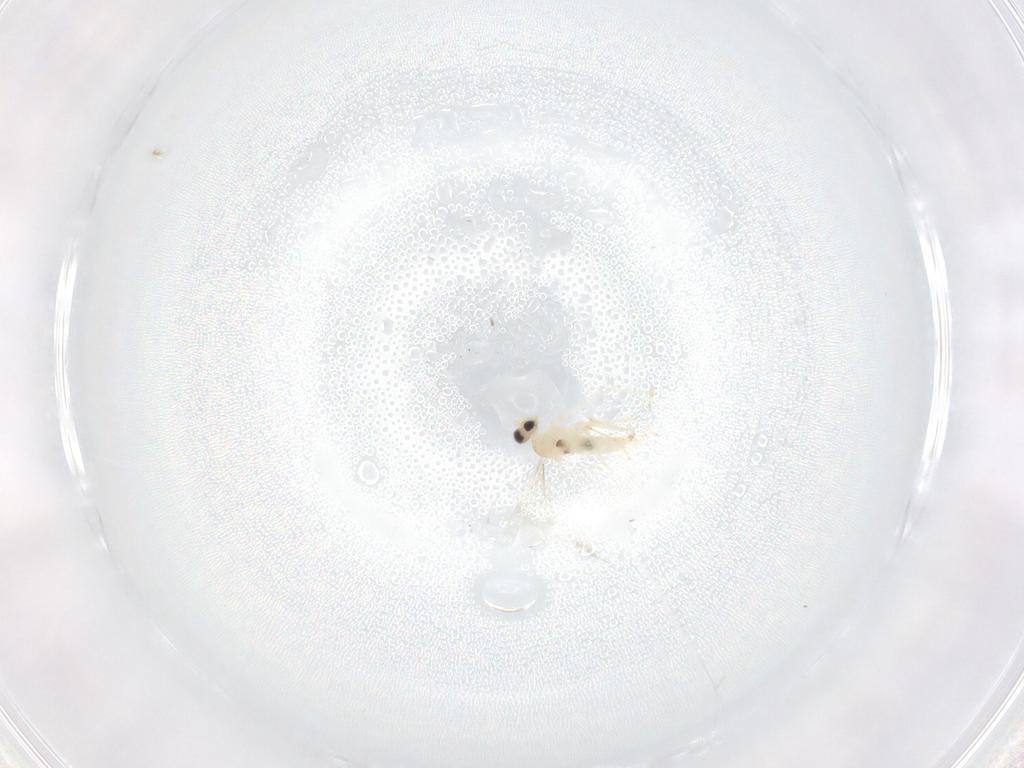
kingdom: Animalia
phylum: Arthropoda
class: Insecta
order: Diptera
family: Cecidomyiidae
